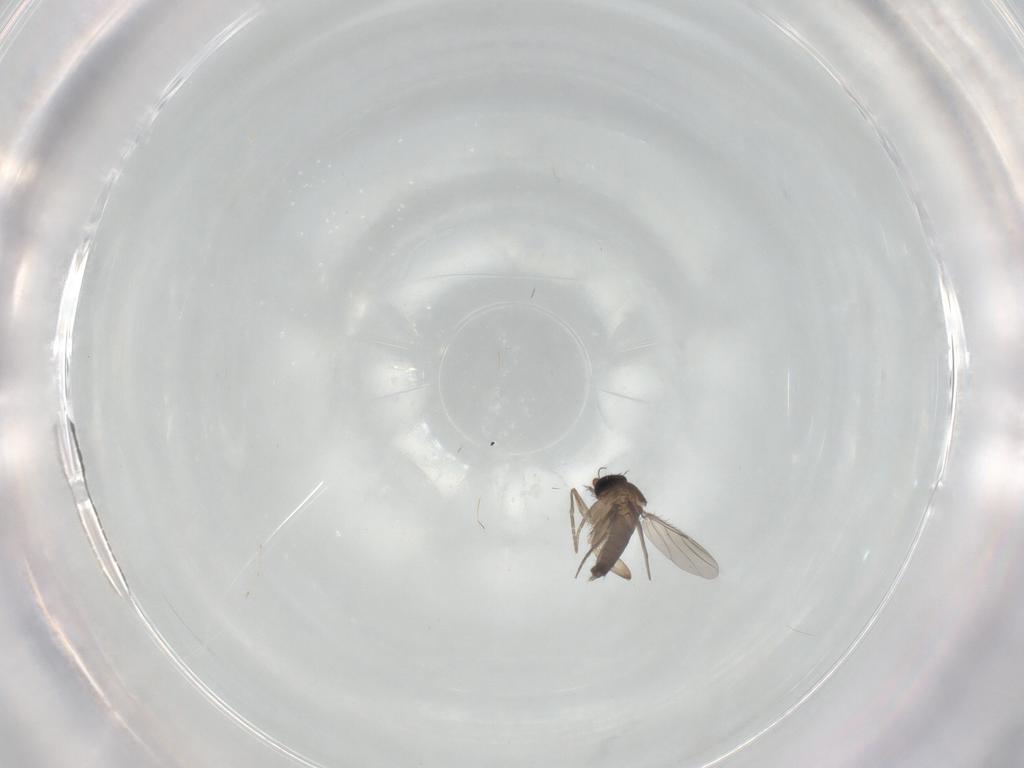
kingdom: Animalia
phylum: Arthropoda
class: Insecta
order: Diptera
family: Phoridae
